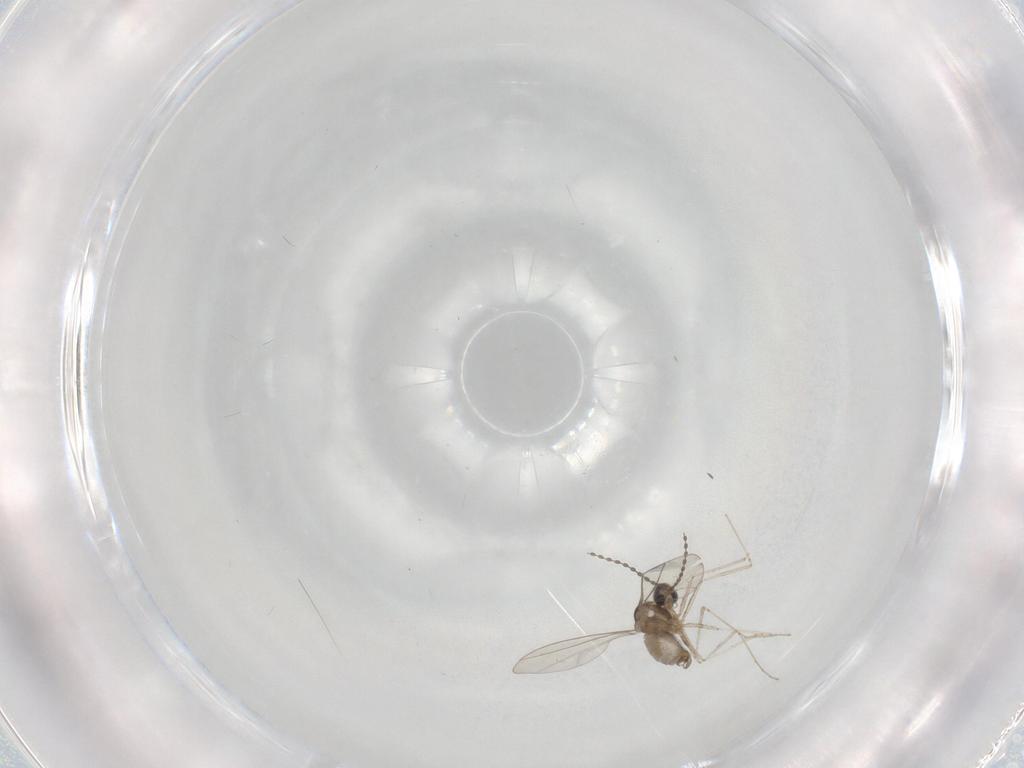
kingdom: Animalia
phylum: Arthropoda
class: Insecta
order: Diptera
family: Cecidomyiidae
